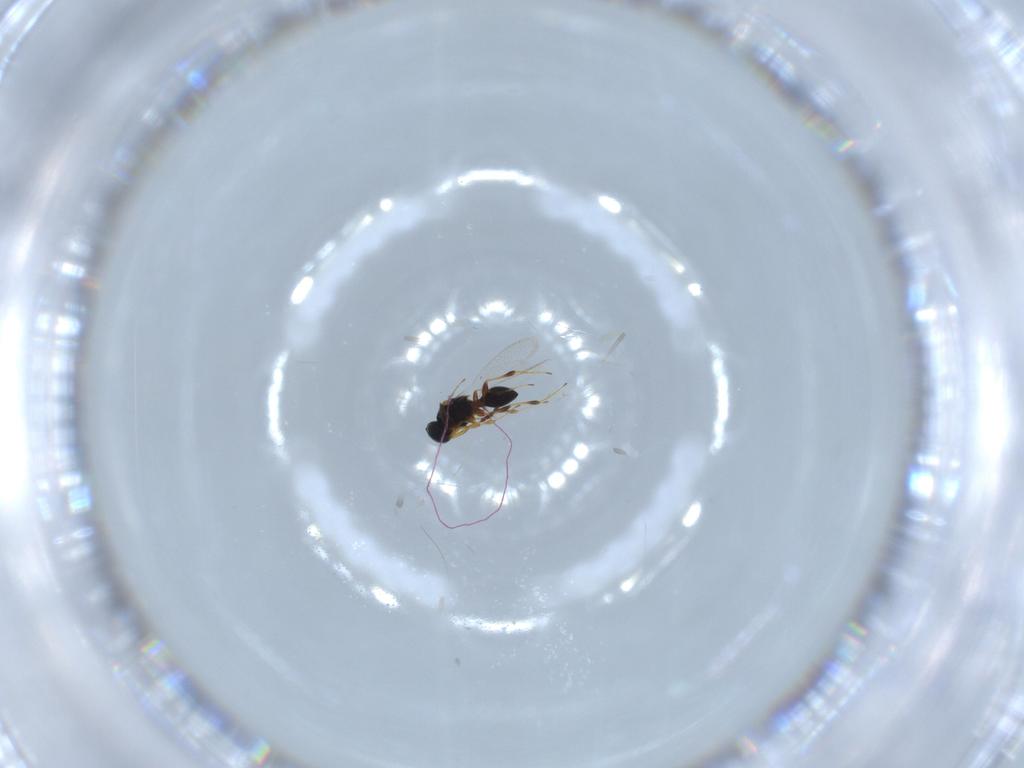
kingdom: Animalia
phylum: Arthropoda
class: Insecta
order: Hymenoptera
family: Platygastridae
